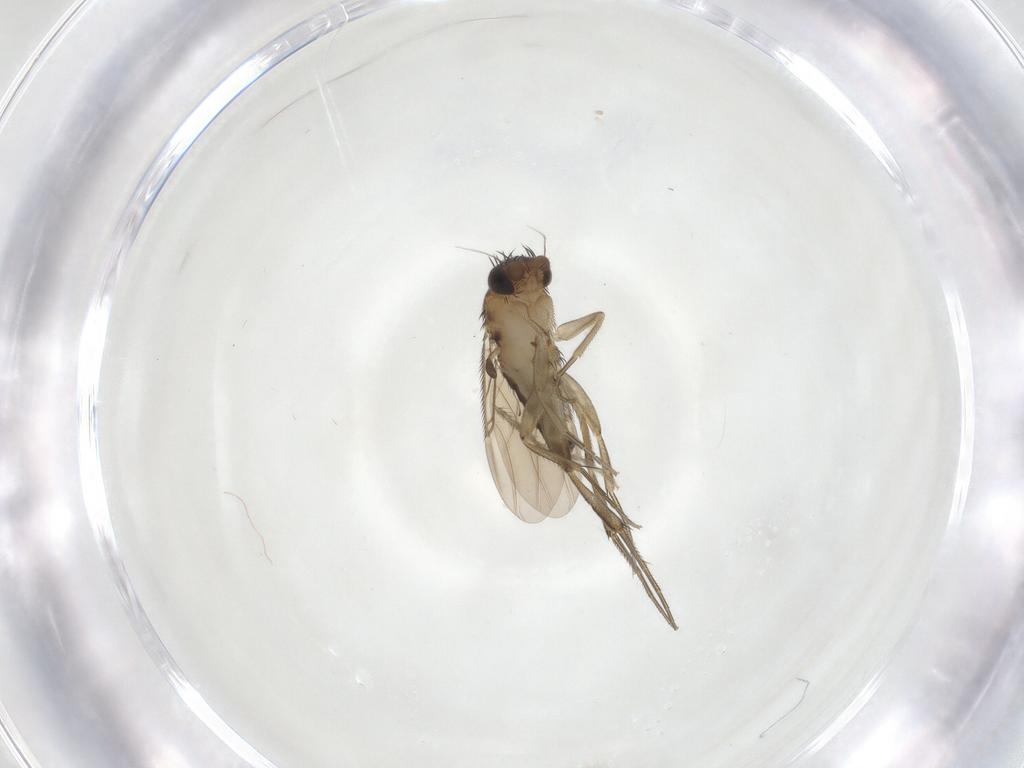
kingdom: Animalia
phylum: Arthropoda
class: Insecta
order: Diptera
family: Phoridae
